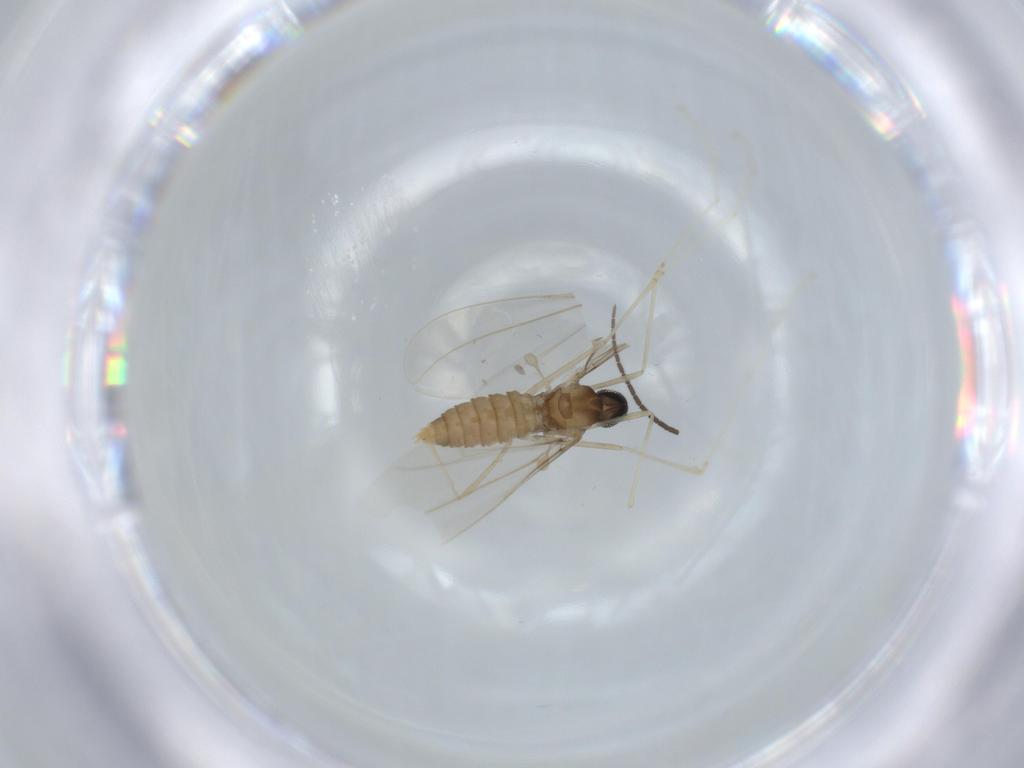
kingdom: Animalia
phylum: Arthropoda
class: Insecta
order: Diptera
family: Cecidomyiidae
